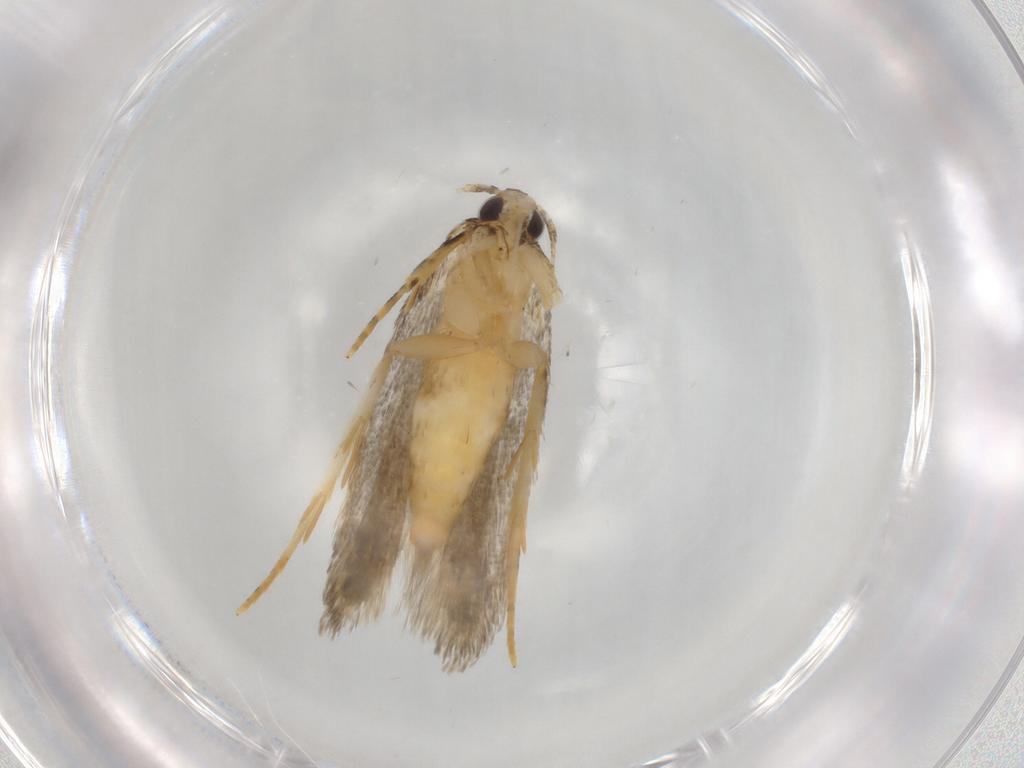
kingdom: Animalia
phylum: Arthropoda
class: Insecta
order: Lepidoptera
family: Autostichidae
